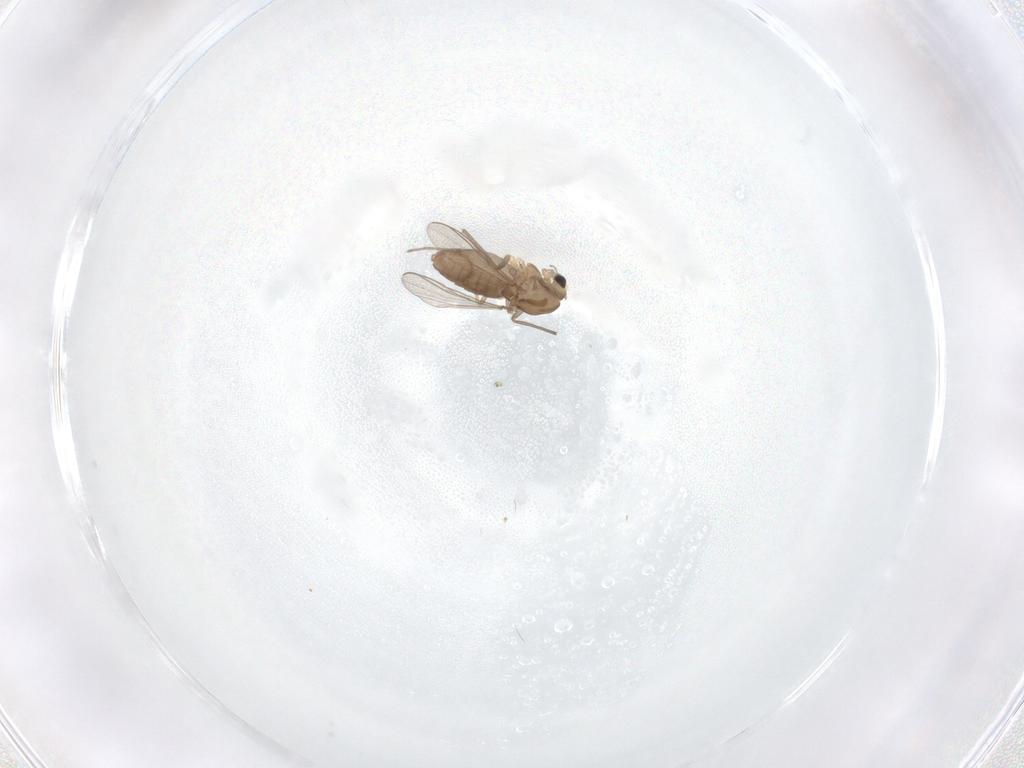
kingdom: Animalia
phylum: Arthropoda
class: Insecta
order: Diptera
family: Chironomidae
